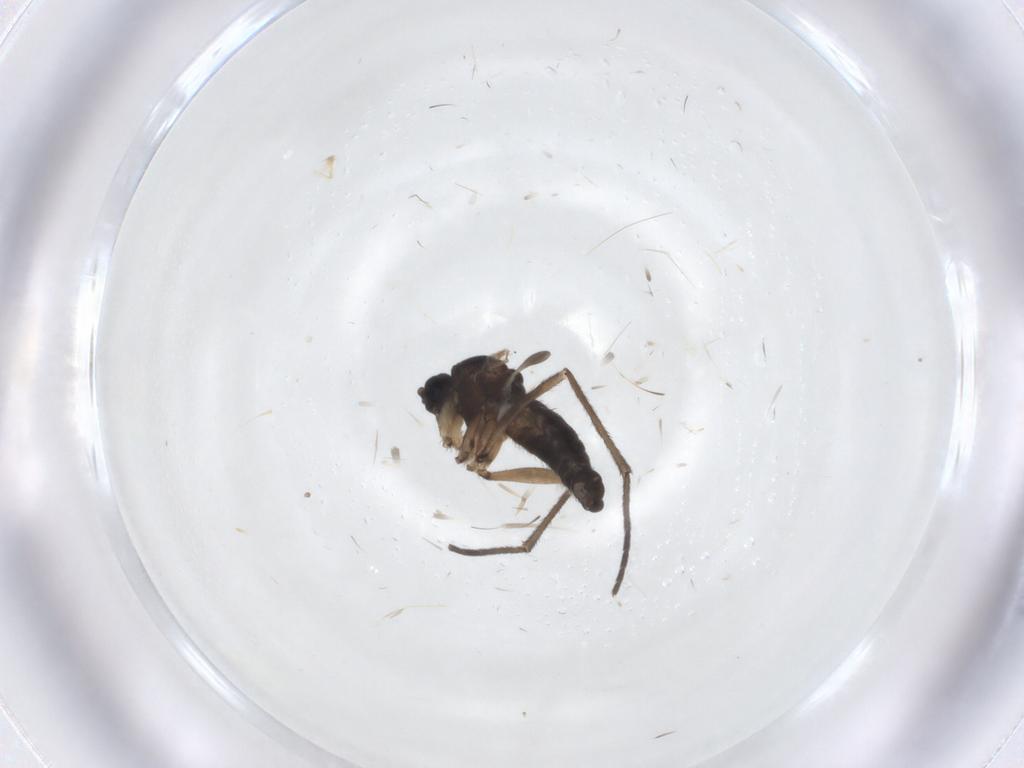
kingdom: Animalia
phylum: Arthropoda
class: Insecta
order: Diptera
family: Sciaridae
